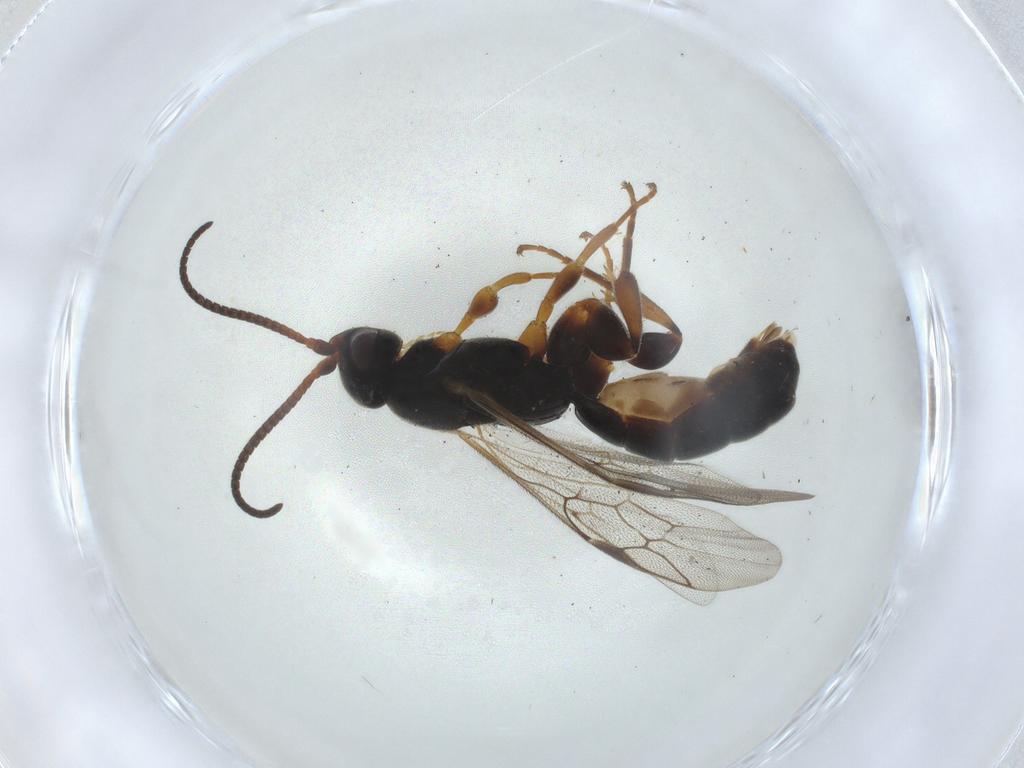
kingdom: Animalia
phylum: Arthropoda
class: Insecta
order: Hymenoptera
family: Ichneumonidae
